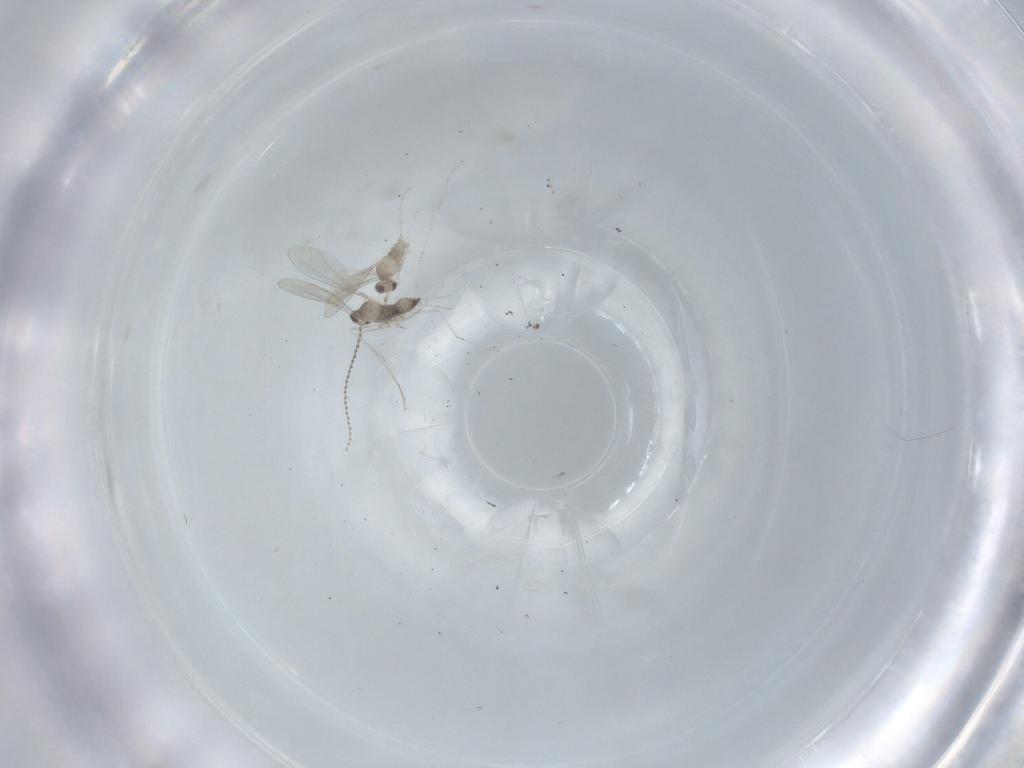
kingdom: Animalia
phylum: Arthropoda
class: Insecta
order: Diptera
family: Cecidomyiidae
